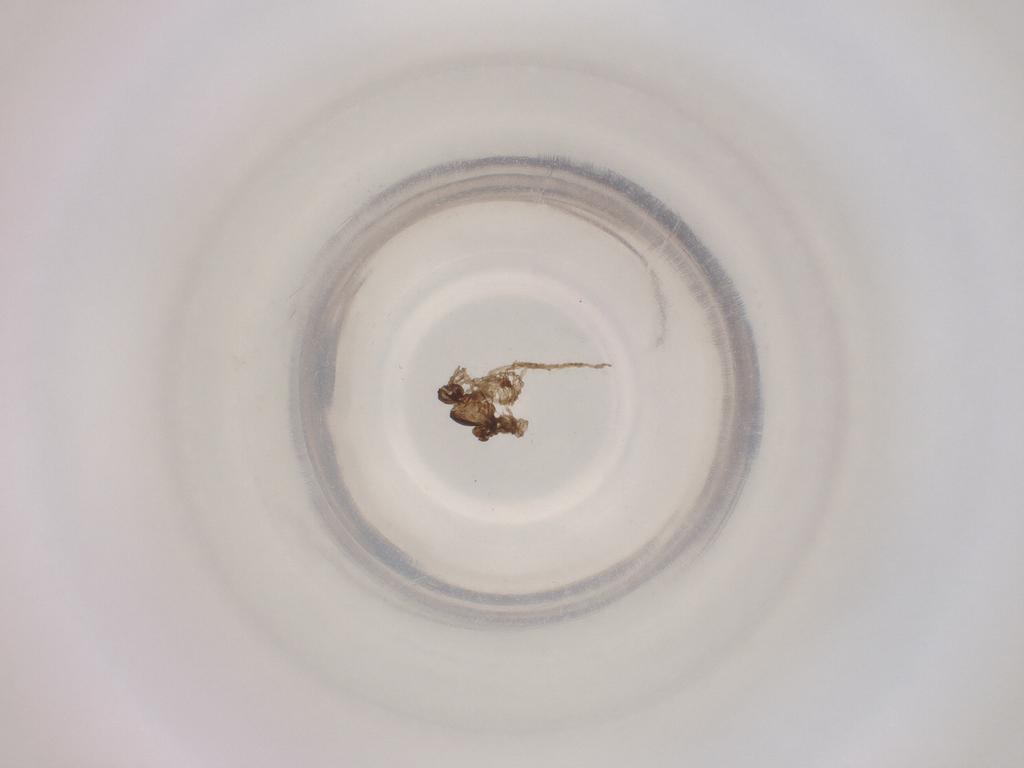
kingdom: Animalia
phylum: Arthropoda
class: Insecta
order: Diptera
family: Cecidomyiidae
